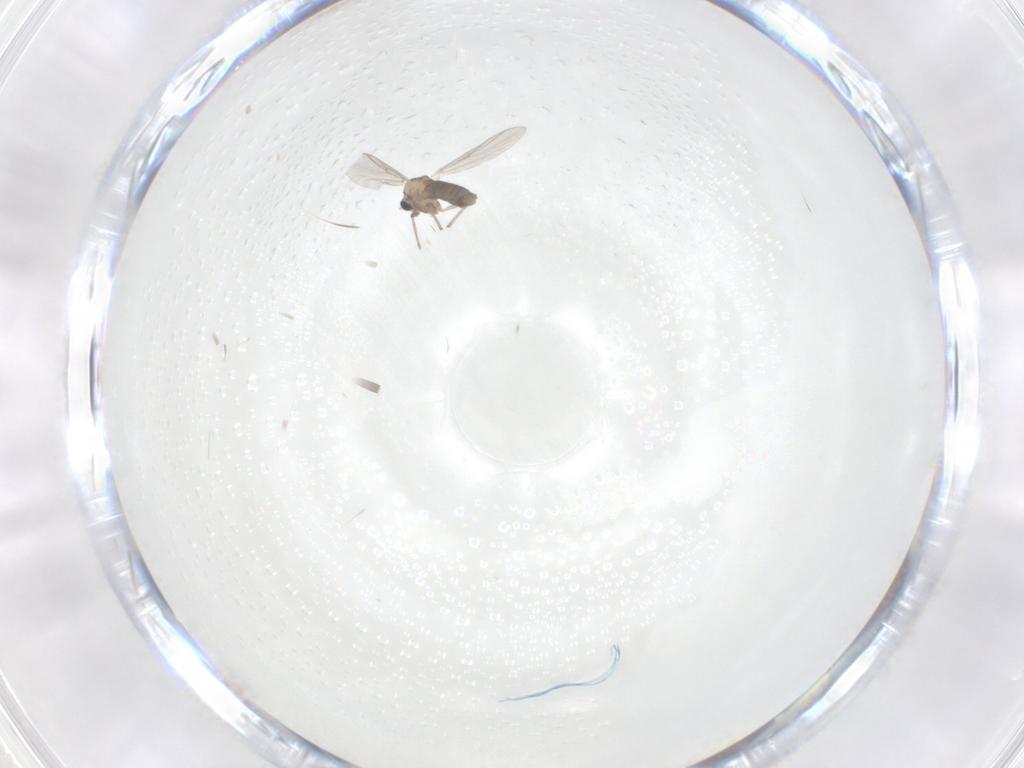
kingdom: Animalia
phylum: Arthropoda
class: Insecta
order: Diptera
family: Chironomidae
